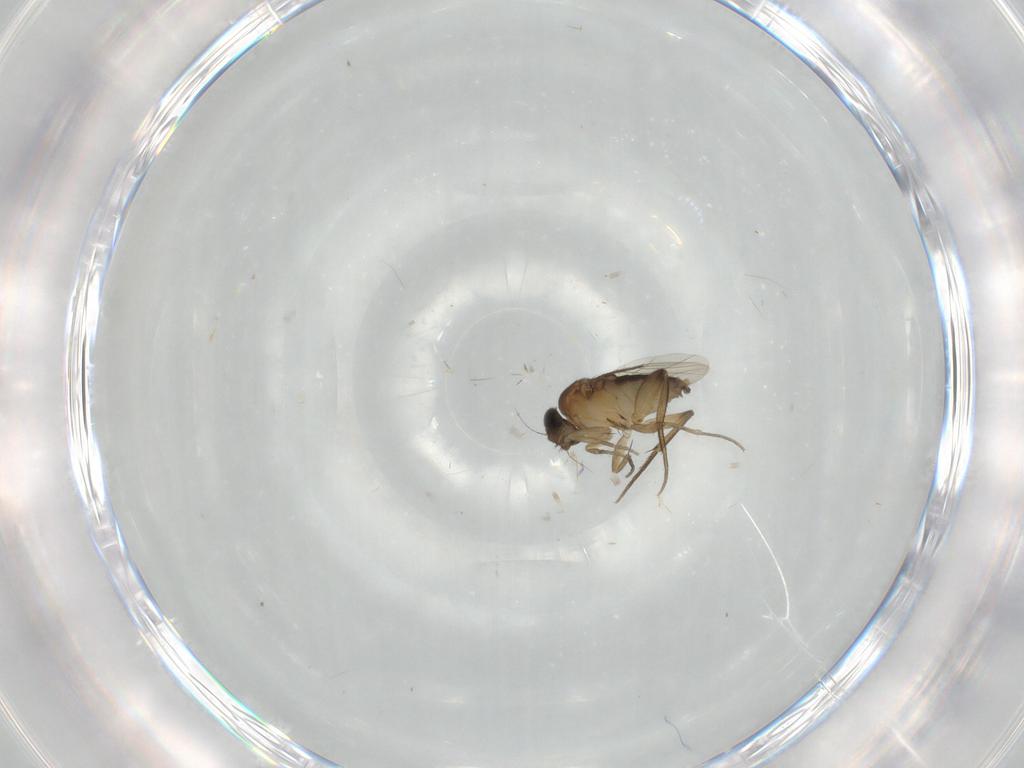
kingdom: Animalia
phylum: Arthropoda
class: Insecta
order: Diptera
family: Phoridae
